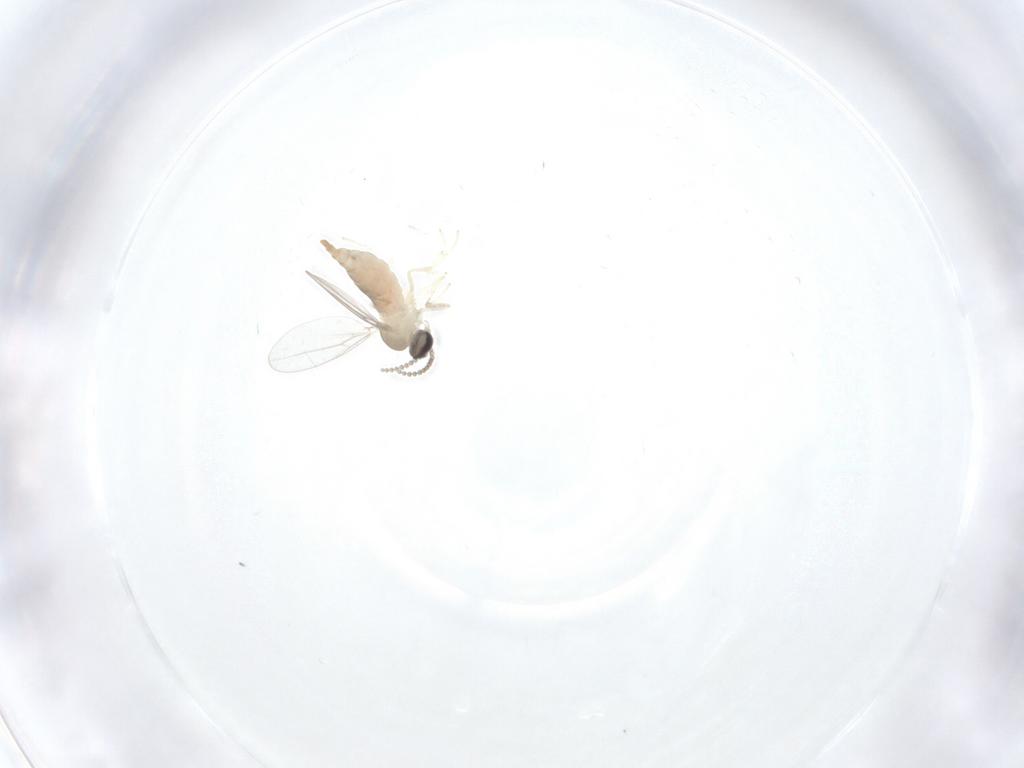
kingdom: Animalia
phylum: Arthropoda
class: Insecta
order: Diptera
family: Cecidomyiidae
